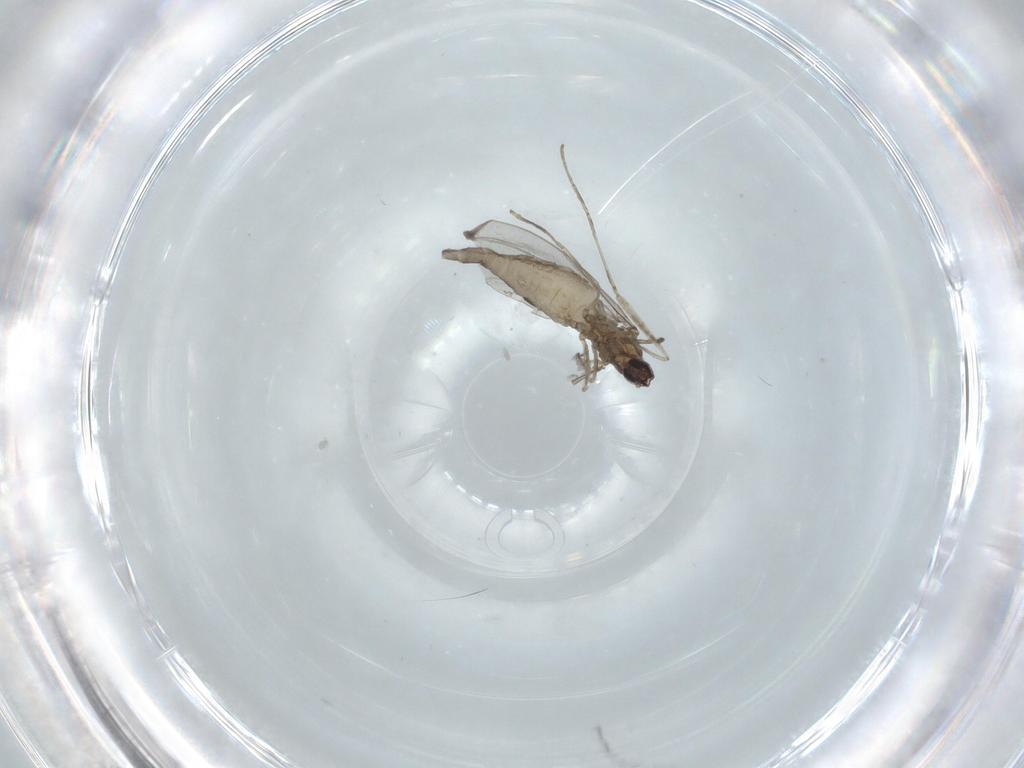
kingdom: Animalia
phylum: Arthropoda
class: Insecta
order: Diptera
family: Cecidomyiidae
